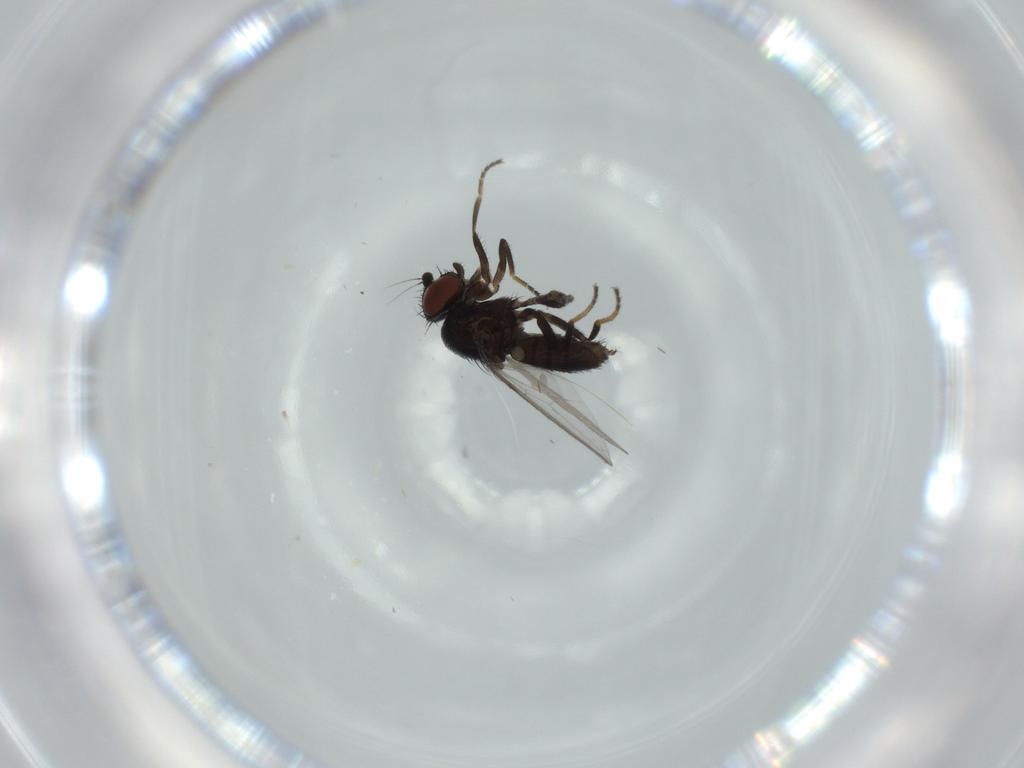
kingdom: Animalia
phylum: Arthropoda
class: Insecta
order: Diptera
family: Milichiidae
